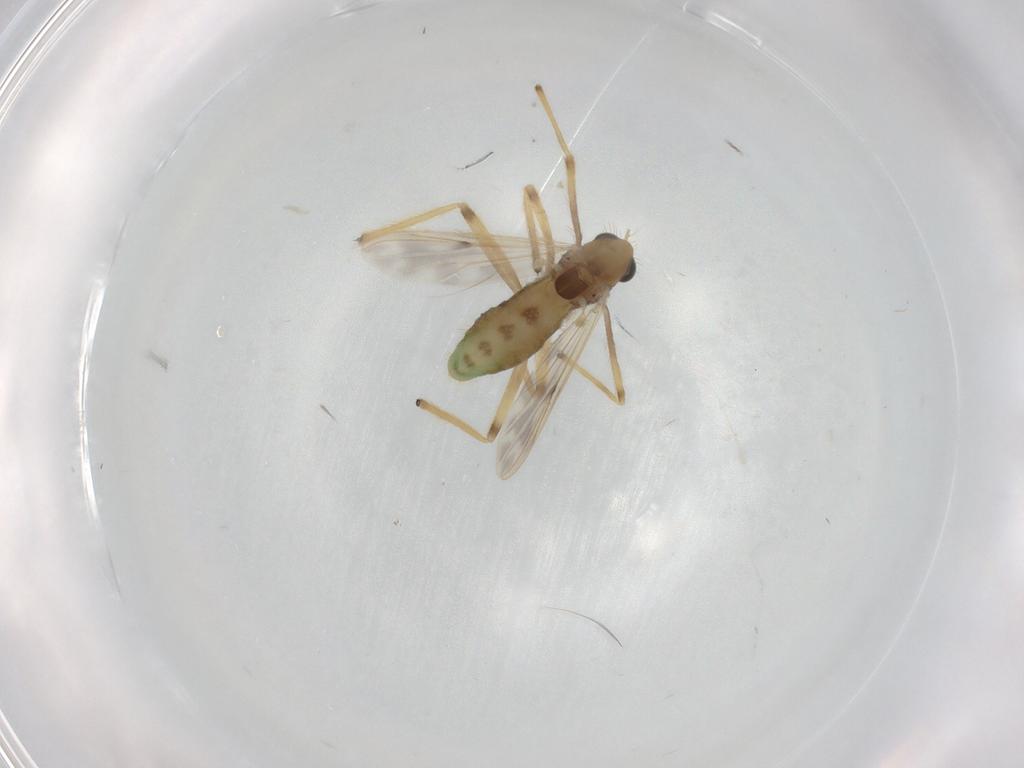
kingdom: Animalia
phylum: Arthropoda
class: Insecta
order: Diptera
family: Chironomidae
